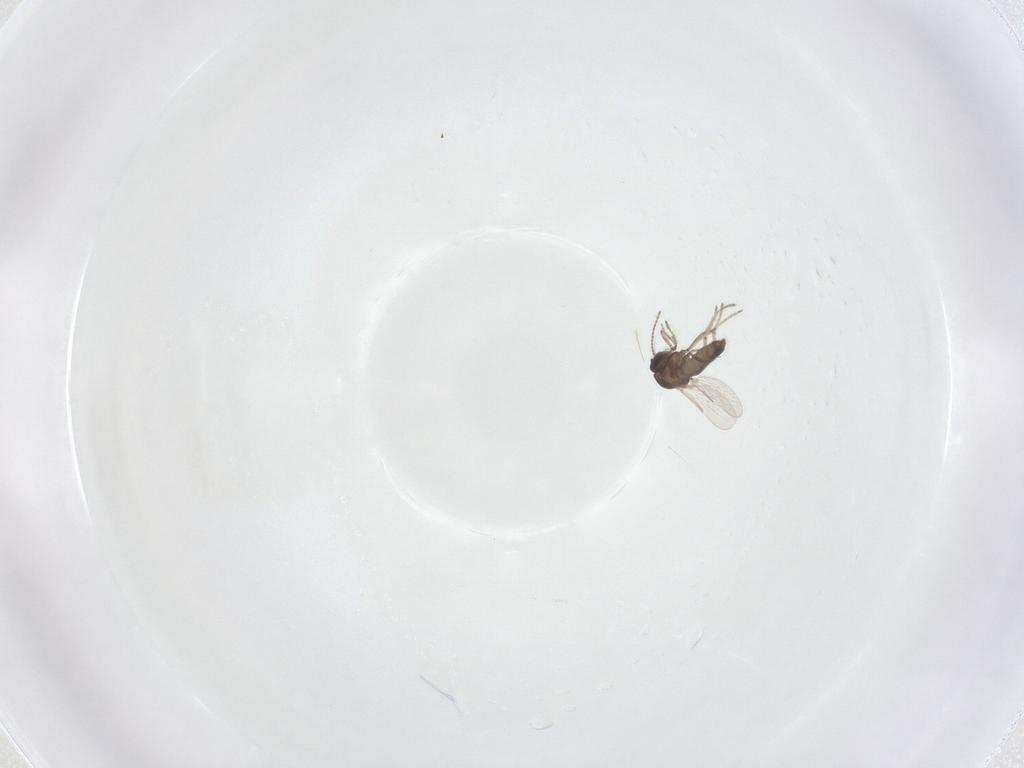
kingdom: Animalia
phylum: Arthropoda
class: Insecta
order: Diptera
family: Ceratopogonidae
